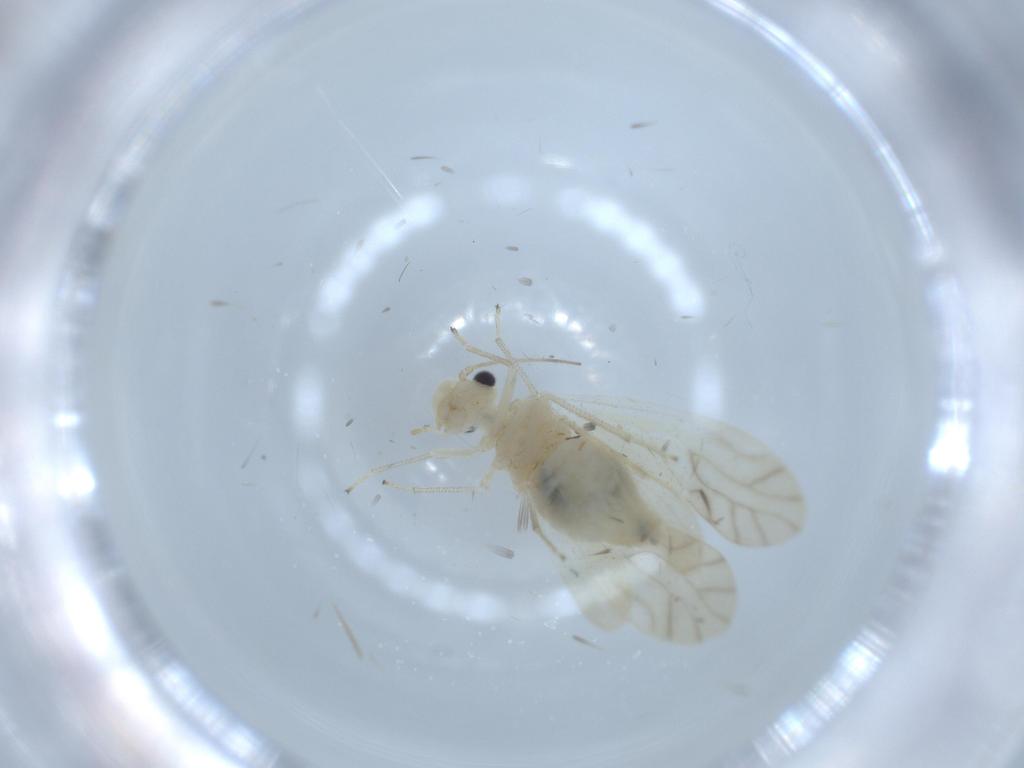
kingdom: Animalia
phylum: Arthropoda
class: Insecta
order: Psocodea
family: Caeciliusidae
